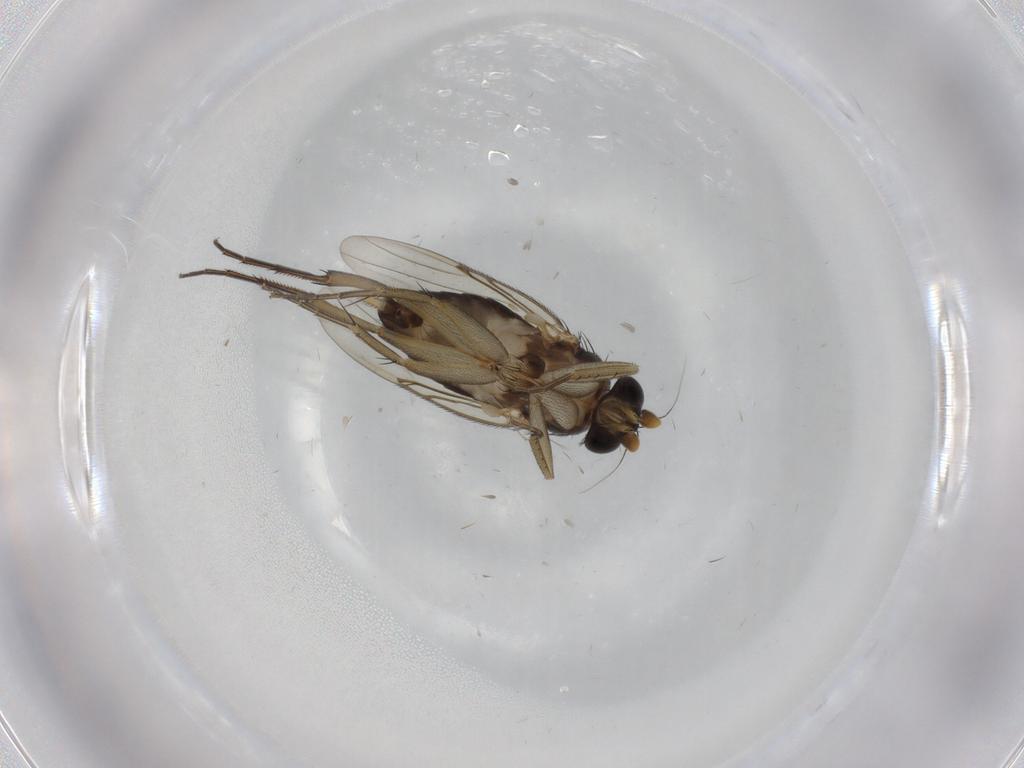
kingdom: Animalia
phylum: Arthropoda
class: Insecta
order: Diptera
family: Phoridae
